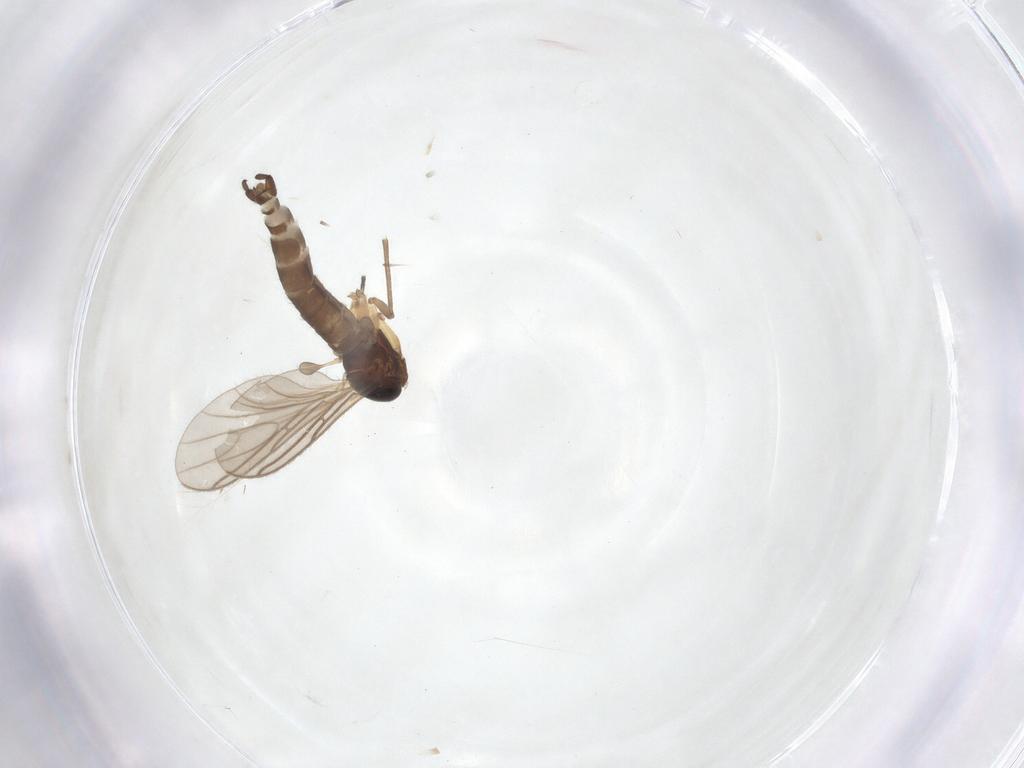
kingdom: Animalia
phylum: Arthropoda
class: Insecta
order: Diptera
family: Sciaridae
